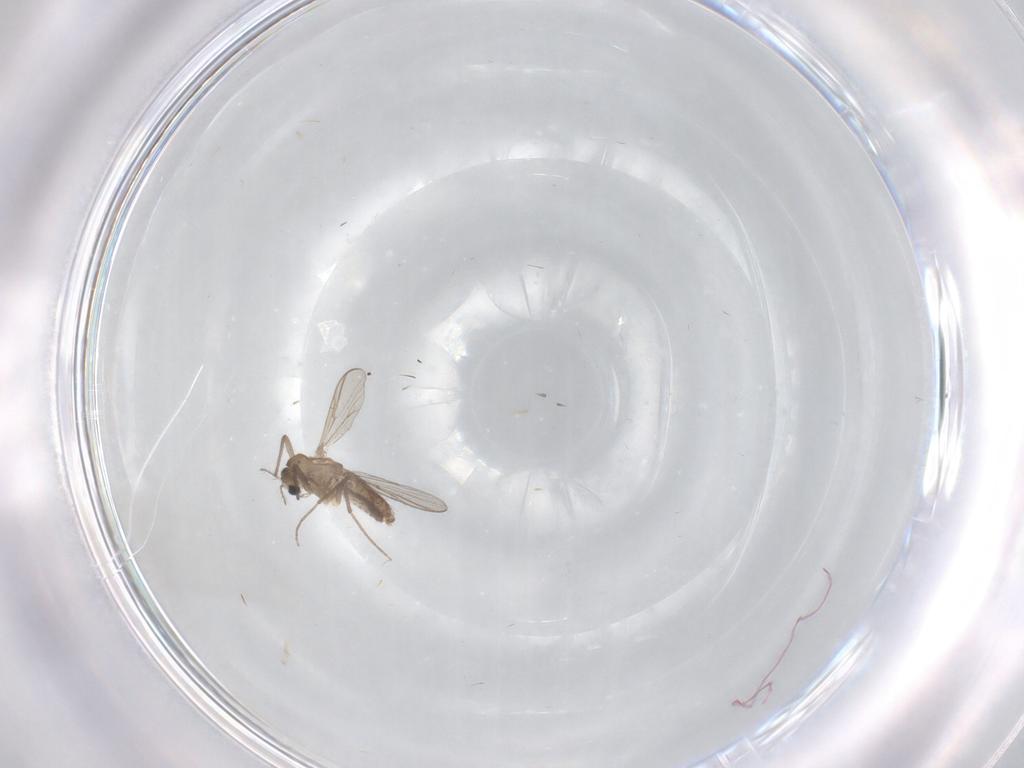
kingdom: Animalia
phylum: Arthropoda
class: Insecta
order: Diptera
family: Chironomidae
